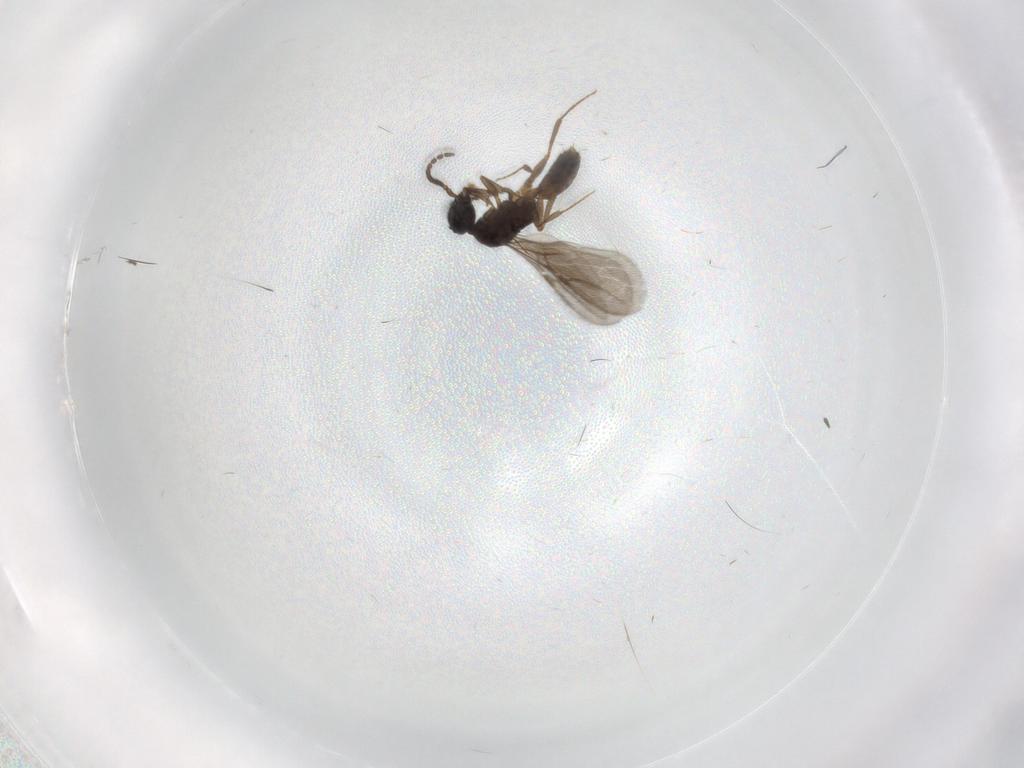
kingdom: Animalia
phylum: Arthropoda
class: Insecta
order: Hymenoptera
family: Bethylidae
